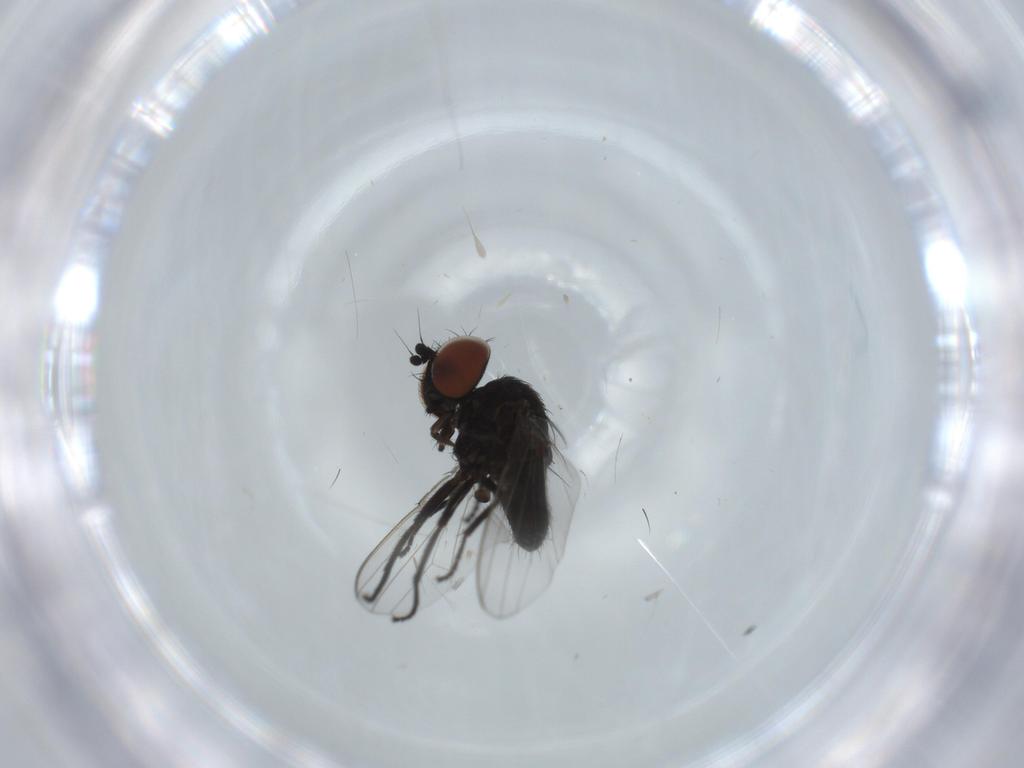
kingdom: Animalia
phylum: Arthropoda
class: Insecta
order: Diptera
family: Milichiidae
